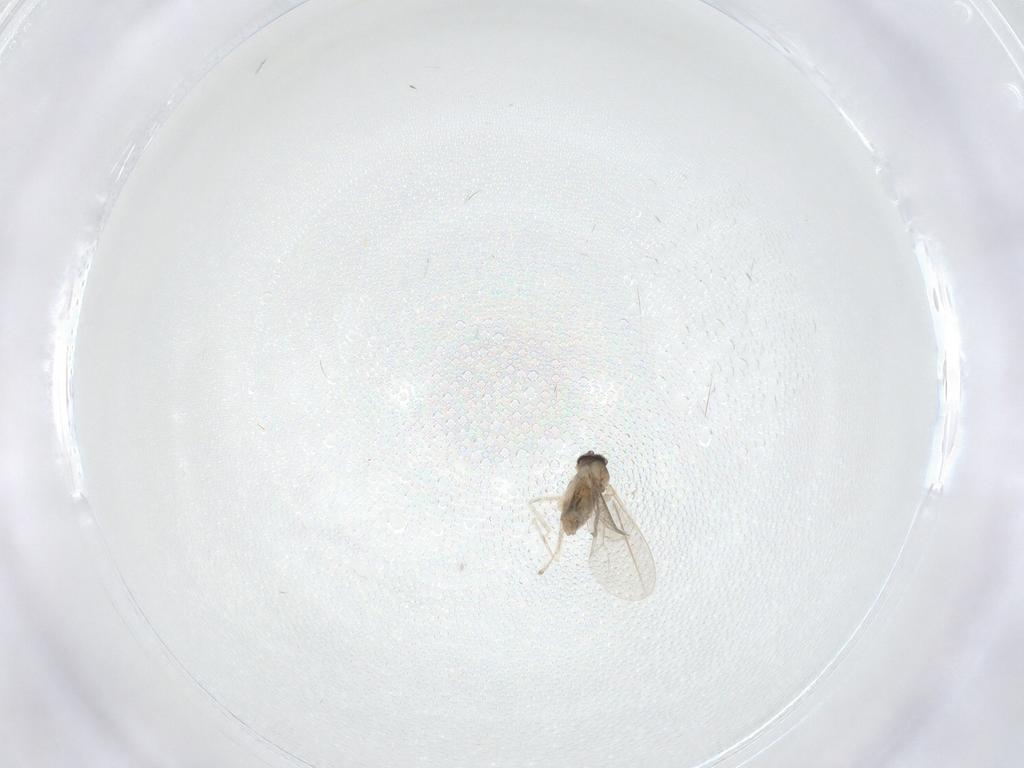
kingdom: Animalia
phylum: Arthropoda
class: Insecta
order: Diptera
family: Cecidomyiidae
